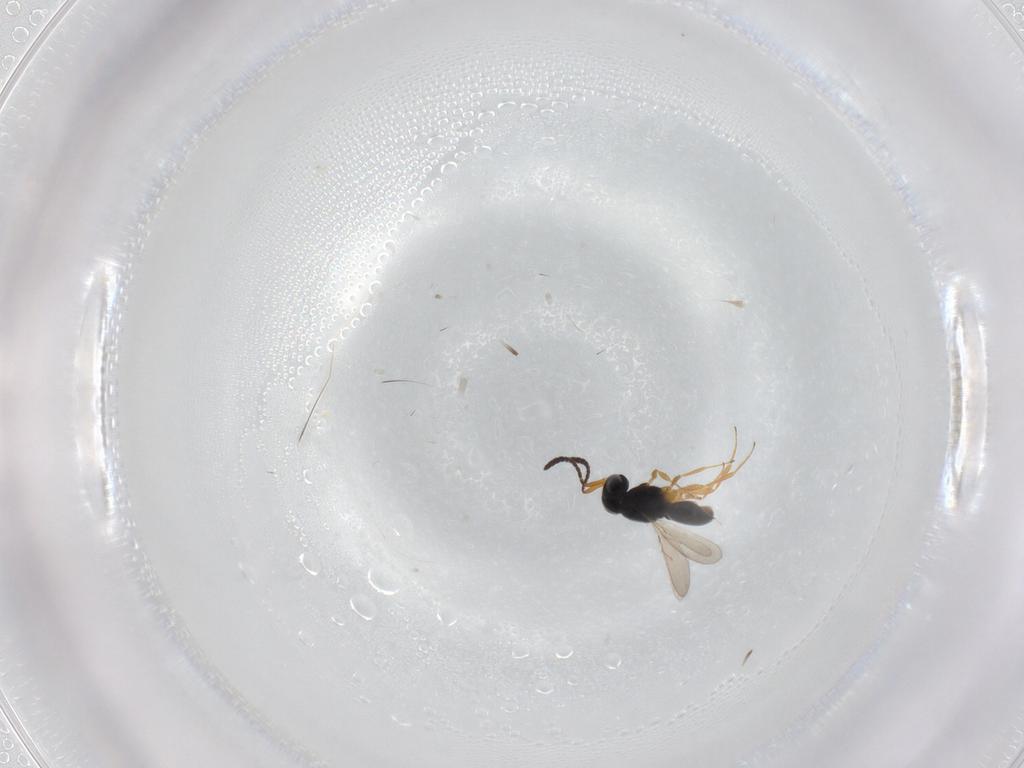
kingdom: Animalia
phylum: Arthropoda
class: Insecta
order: Hymenoptera
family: Scelionidae
